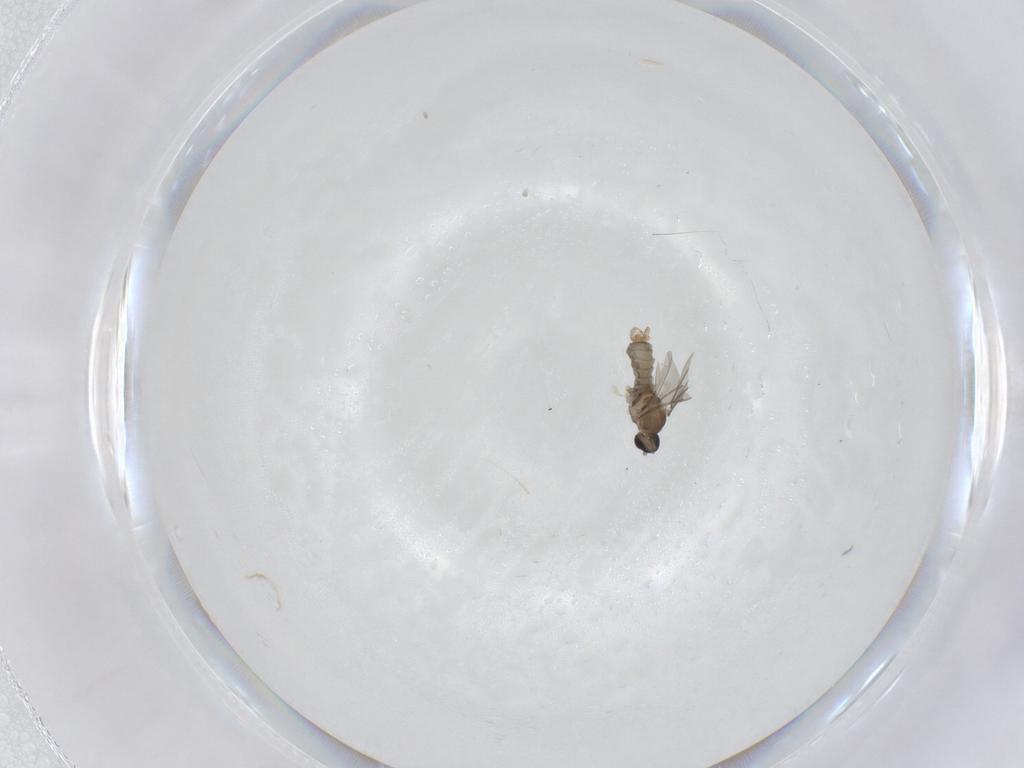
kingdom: Animalia
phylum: Arthropoda
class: Insecta
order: Diptera
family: Cecidomyiidae
